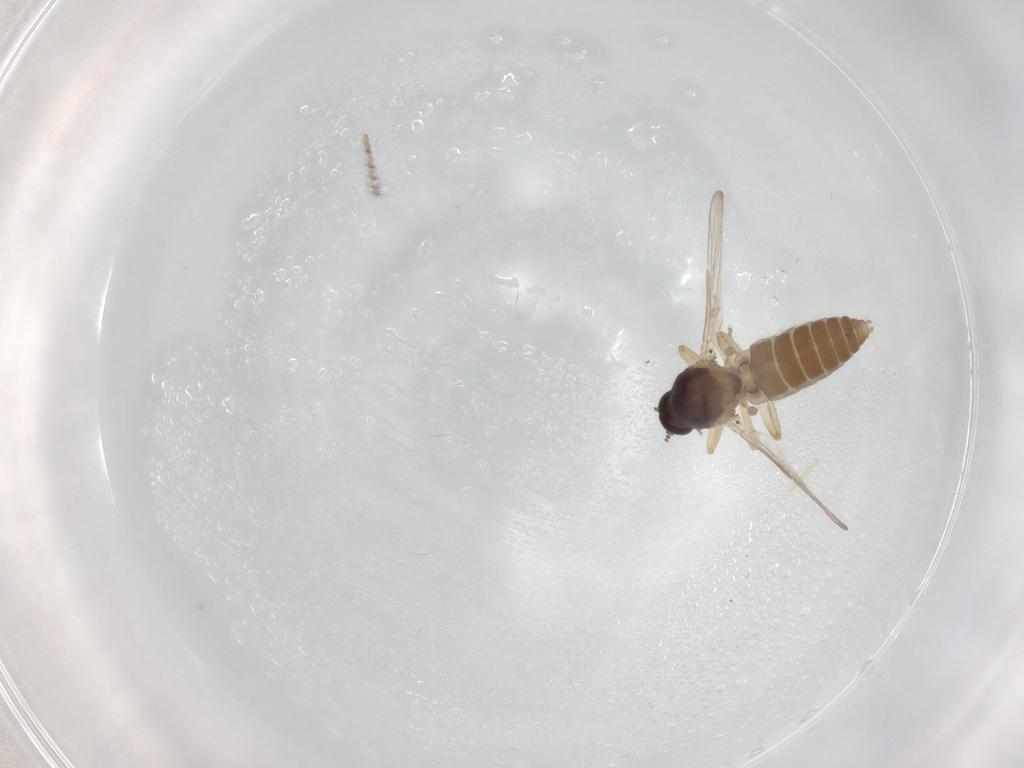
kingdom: Animalia
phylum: Arthropoda
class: Insecta
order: Diptera
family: Ceratopogonidae
